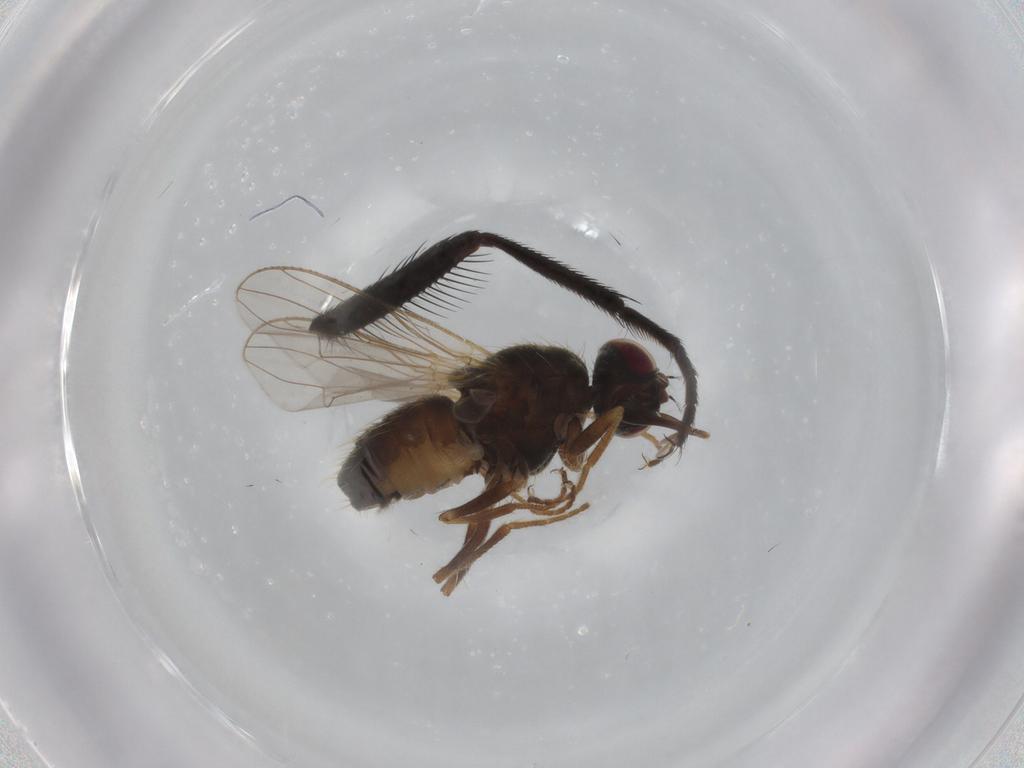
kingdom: Animalia
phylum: Arthropoda
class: Insecta
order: Diptera
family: Muscidae
